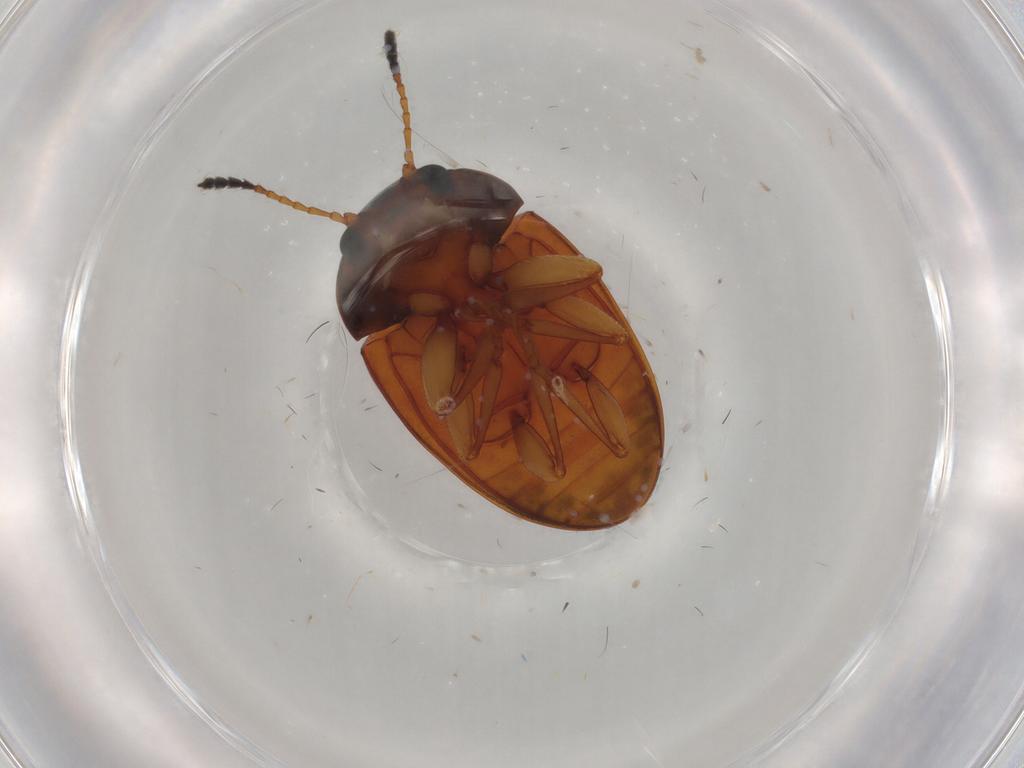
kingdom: Animalia
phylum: Arthropoda
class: Insecta
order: Coleoptera
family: Erotylidae
